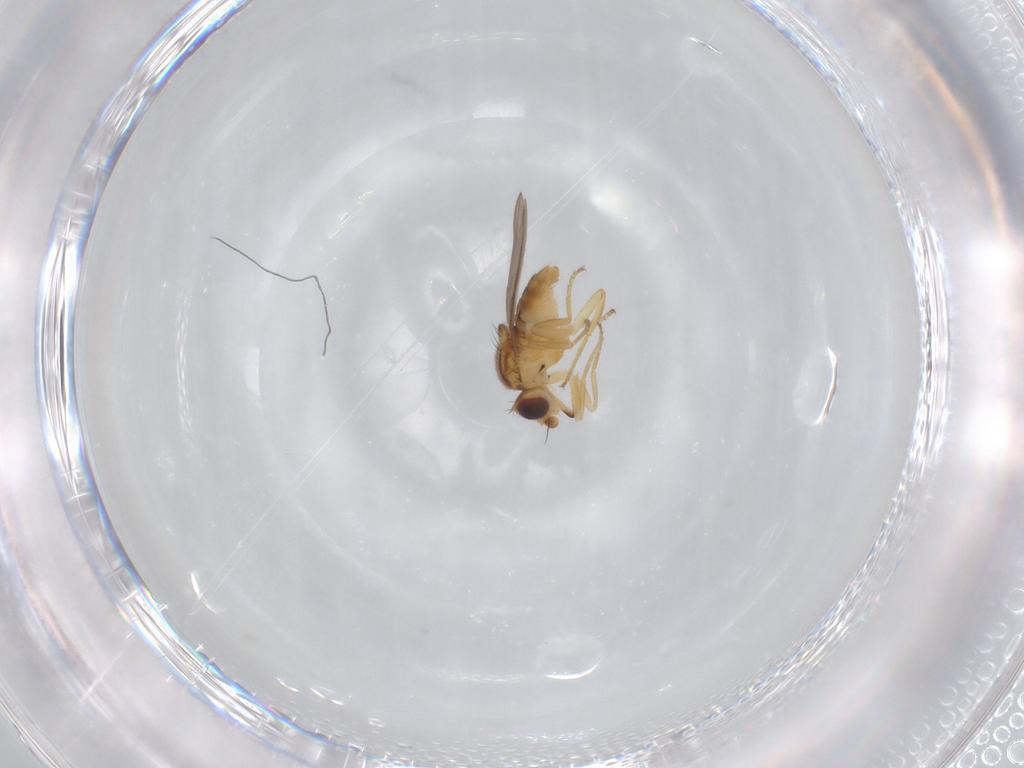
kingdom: Animalia
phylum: Arthropoda
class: Insecta
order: Diptera
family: Chloropidae
